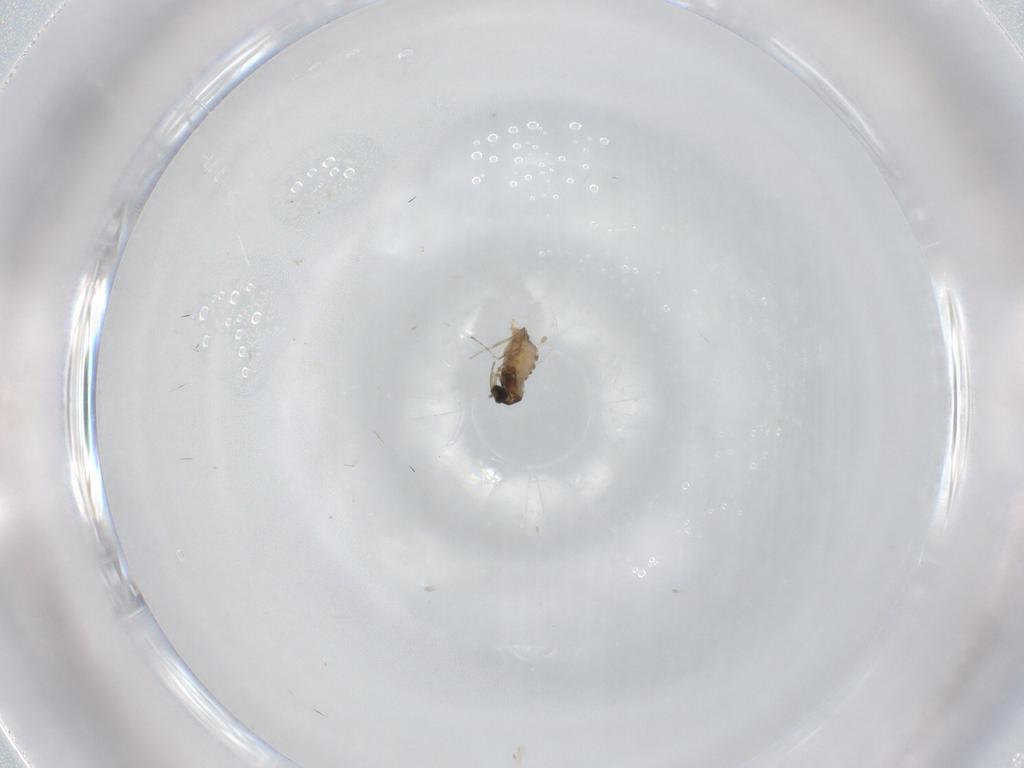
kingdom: Animalia
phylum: Arthropoda
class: Insecta
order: Diptera
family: Cecidomyiidae
